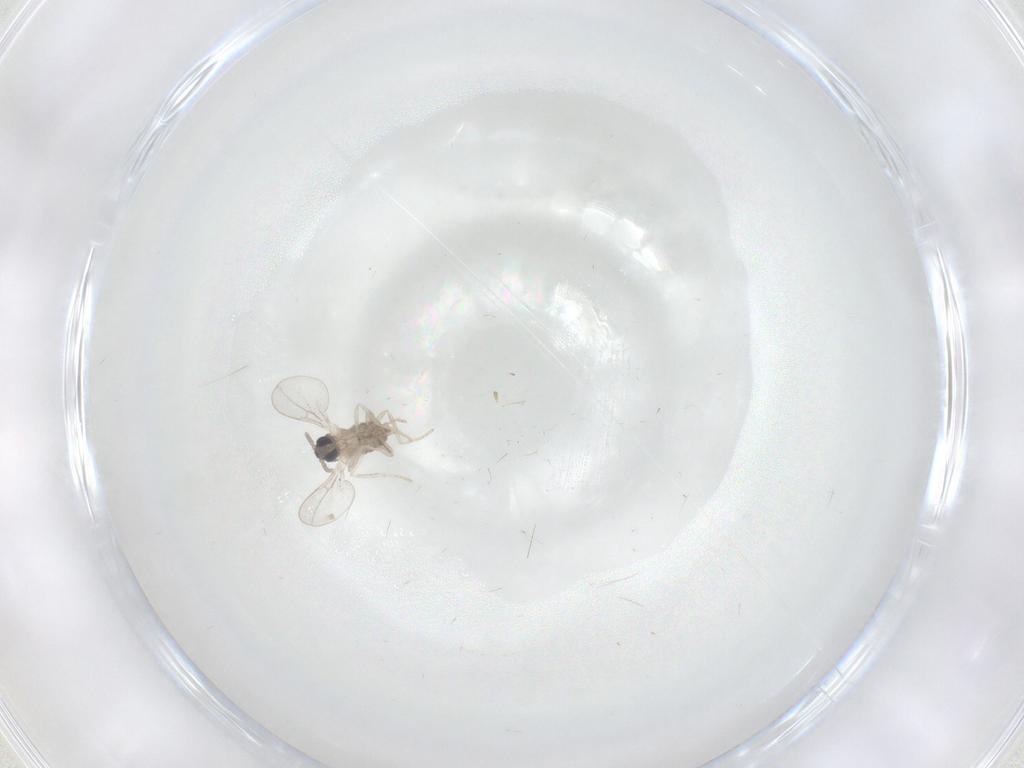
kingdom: Animalia
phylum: Arthropoda
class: Insecta
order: Diptera
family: Cecidomyiidae
